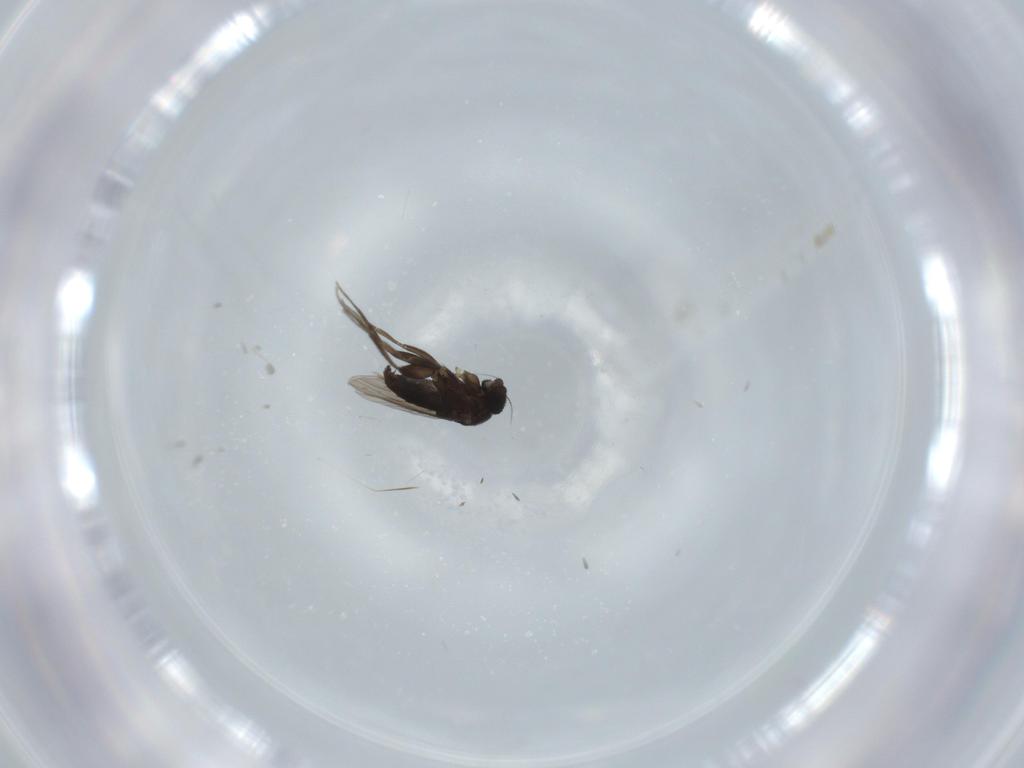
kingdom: Animalia
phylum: Arthropoda
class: Insecta
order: Diptera
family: Phoridae
